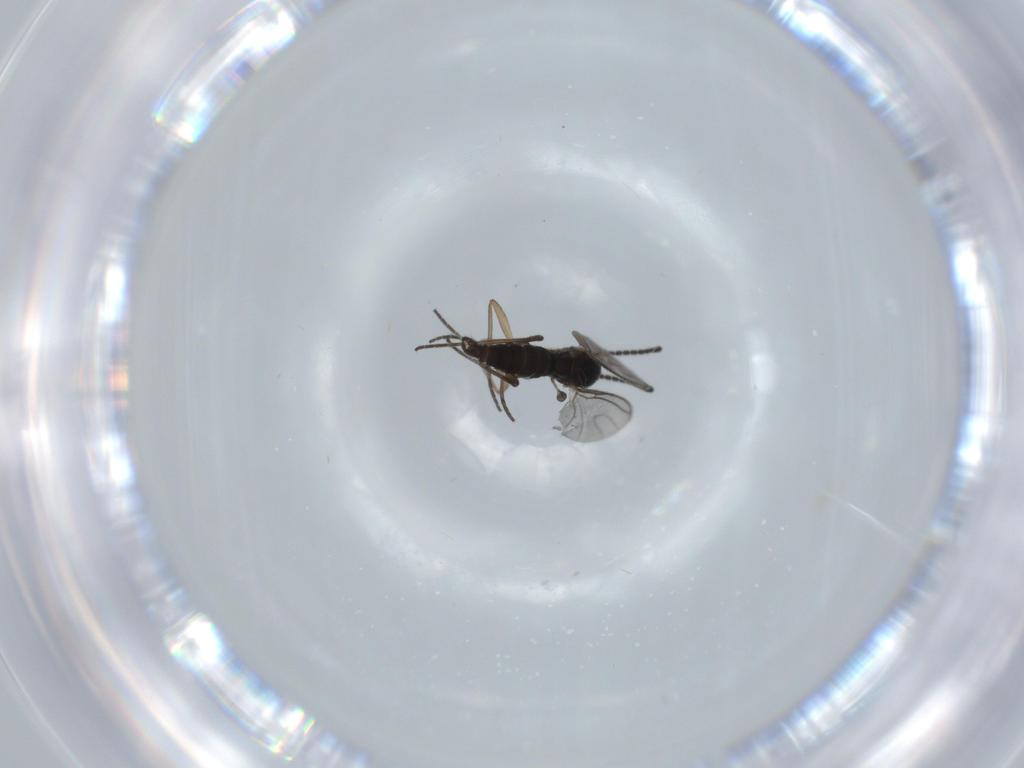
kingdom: Animalia
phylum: Arthropoda
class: Insecta
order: Diptera
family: Sciaridae
